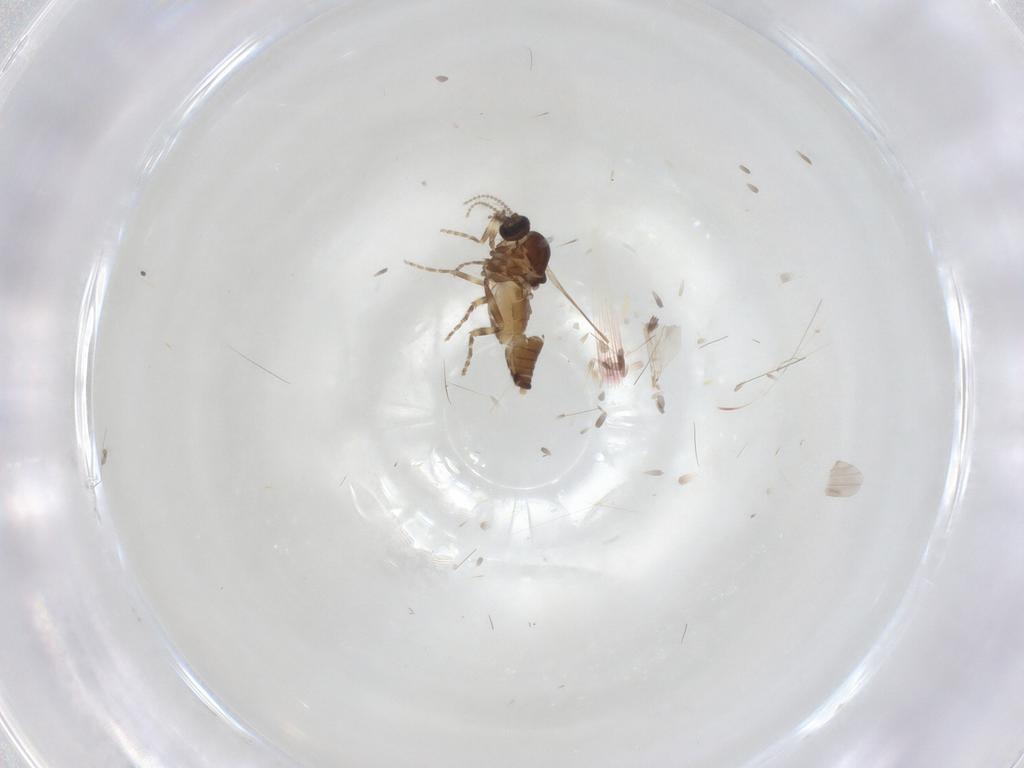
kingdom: Animalia
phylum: Arthropoda
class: Insecta
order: Diptera
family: Ceratopogonidae
